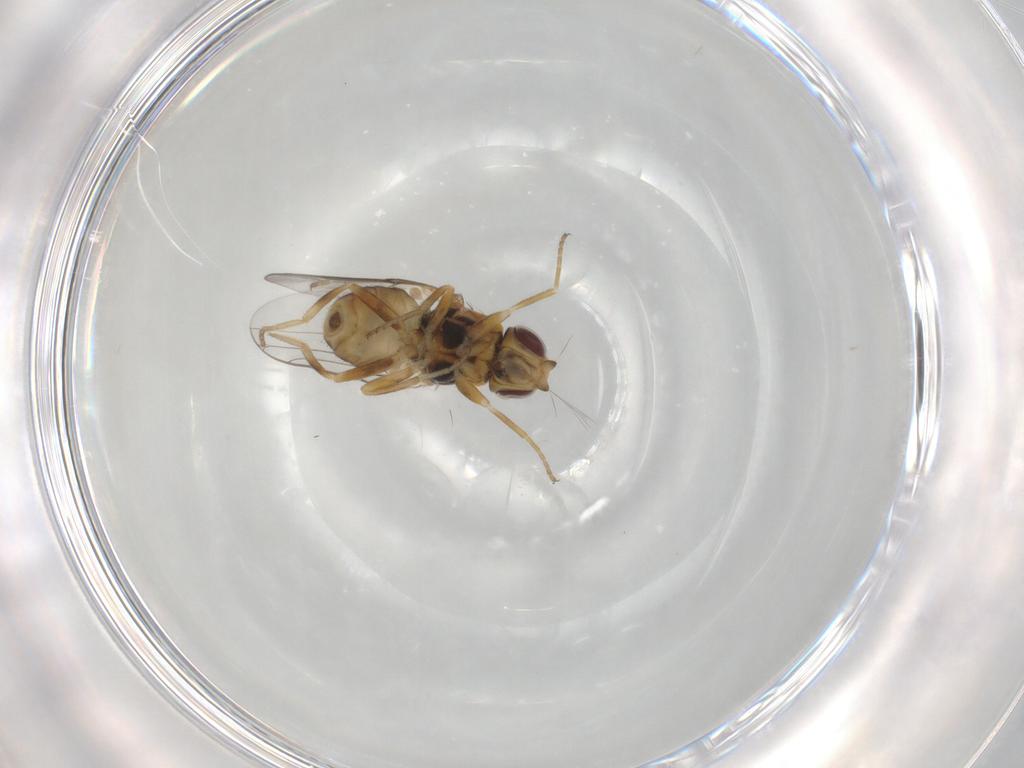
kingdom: Animalia
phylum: Arthropoda
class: Insecta
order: Diptera
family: Chloropidae
